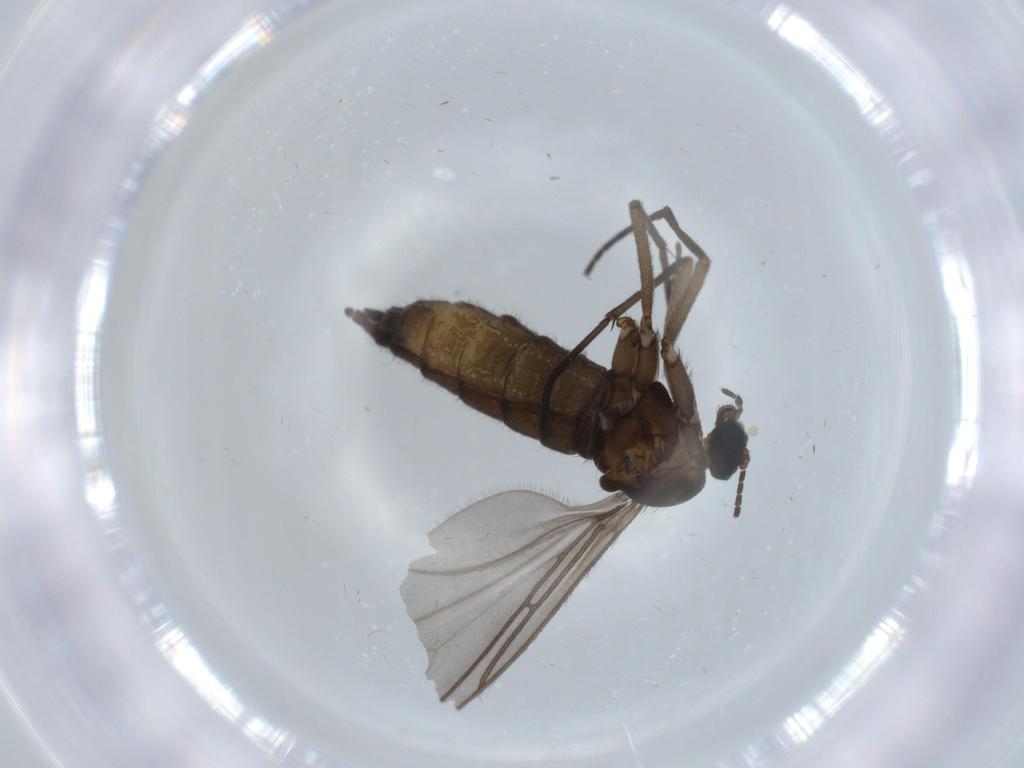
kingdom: Animalia
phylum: Arthropoda
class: Insecta
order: Diptera
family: Sciaridae
